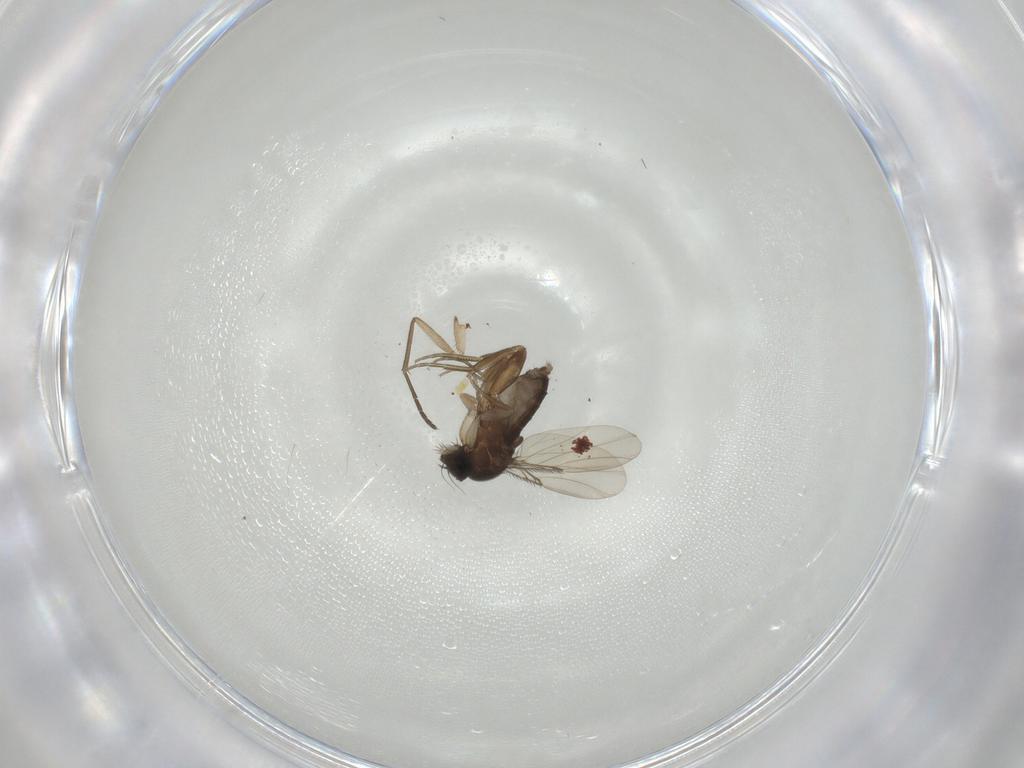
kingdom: Animalia
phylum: Arthropoda
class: Insecta
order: Diptera
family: Sciaridae
